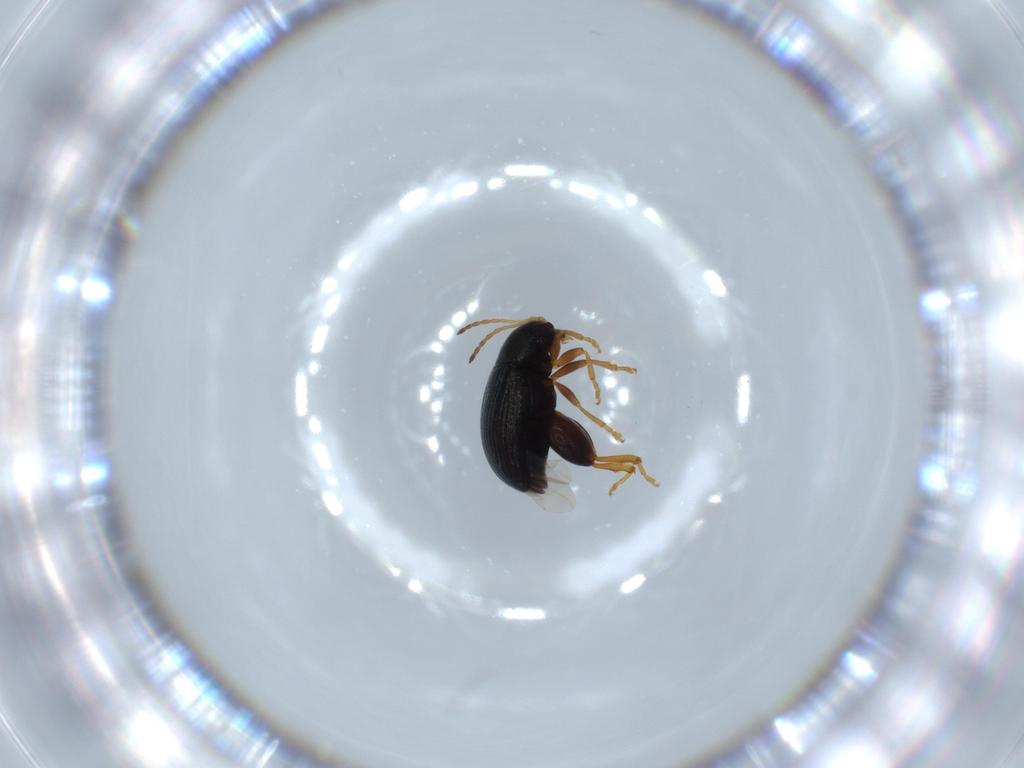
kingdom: Animalia
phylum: Arthropoda
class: Insecta
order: Coleoptera
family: Chrysomelidae
